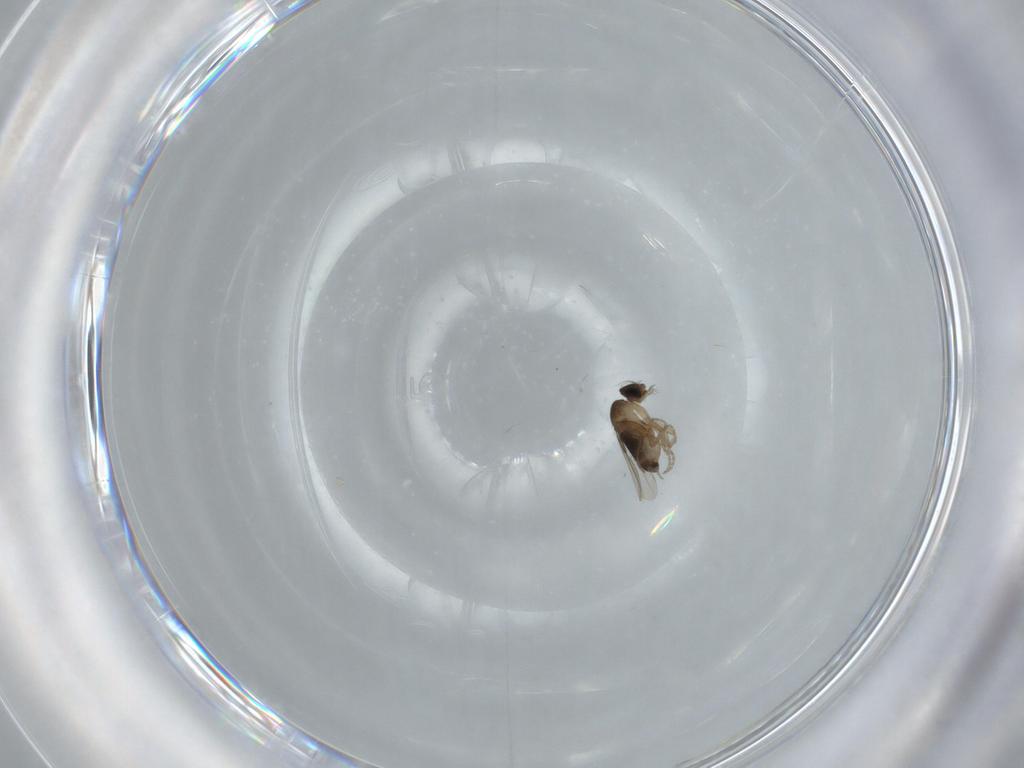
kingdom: Animalia
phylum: Arthropoda
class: Insecta
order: Diptera
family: Phoridae
